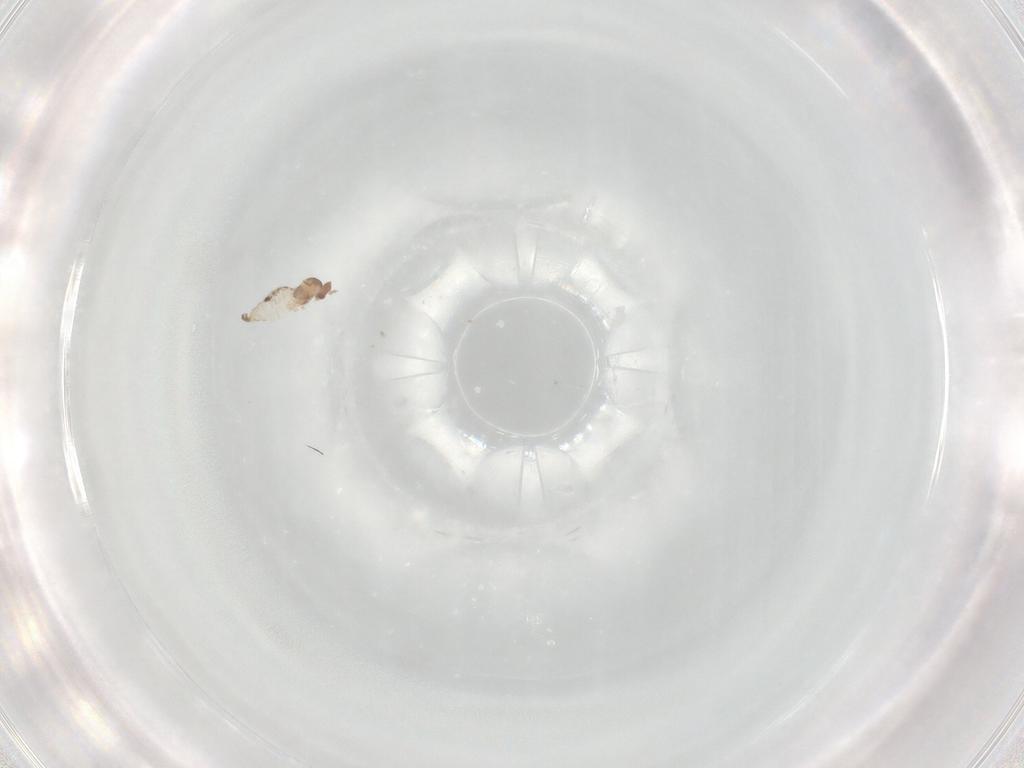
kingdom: Animalia
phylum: Arthropoda
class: Insecta
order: Diptera
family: Cecidomyiidae
